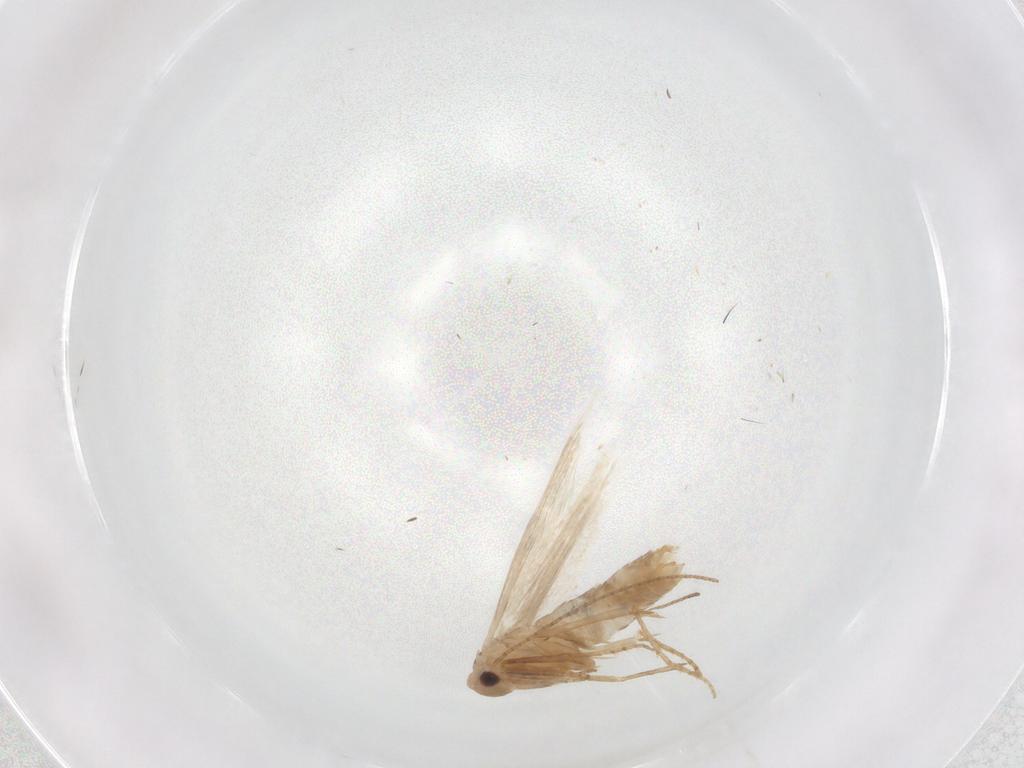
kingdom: Animalia
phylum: Arthropoda
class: Insecta
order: Lepidoptera
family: Bucculatricidae
